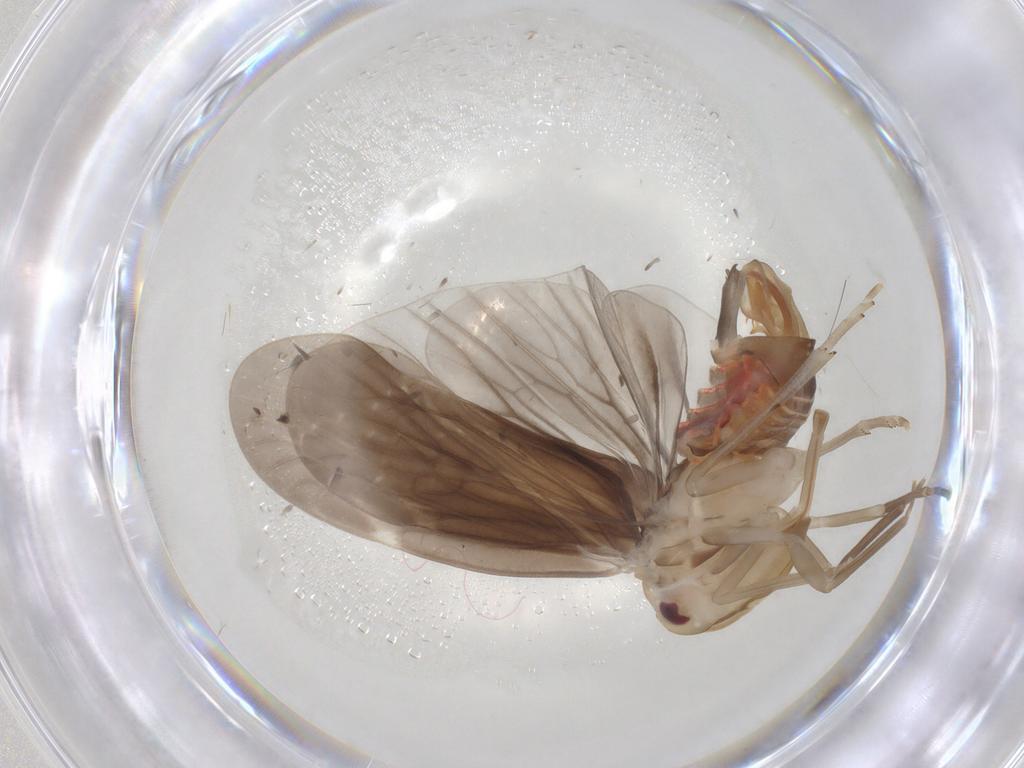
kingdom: Animalia
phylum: Arthropoda
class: Insecta
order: Hemiptera
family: Derbidae
